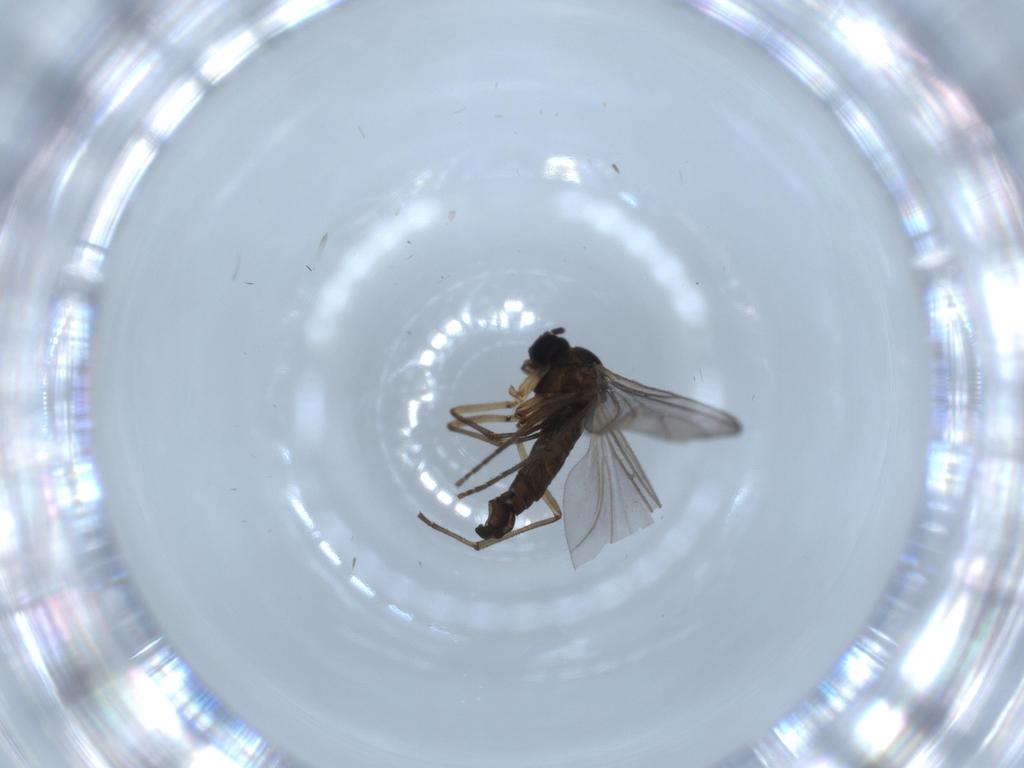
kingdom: Animalia
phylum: Arthropoda
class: Insecta
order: Diptera
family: Sciaridae
